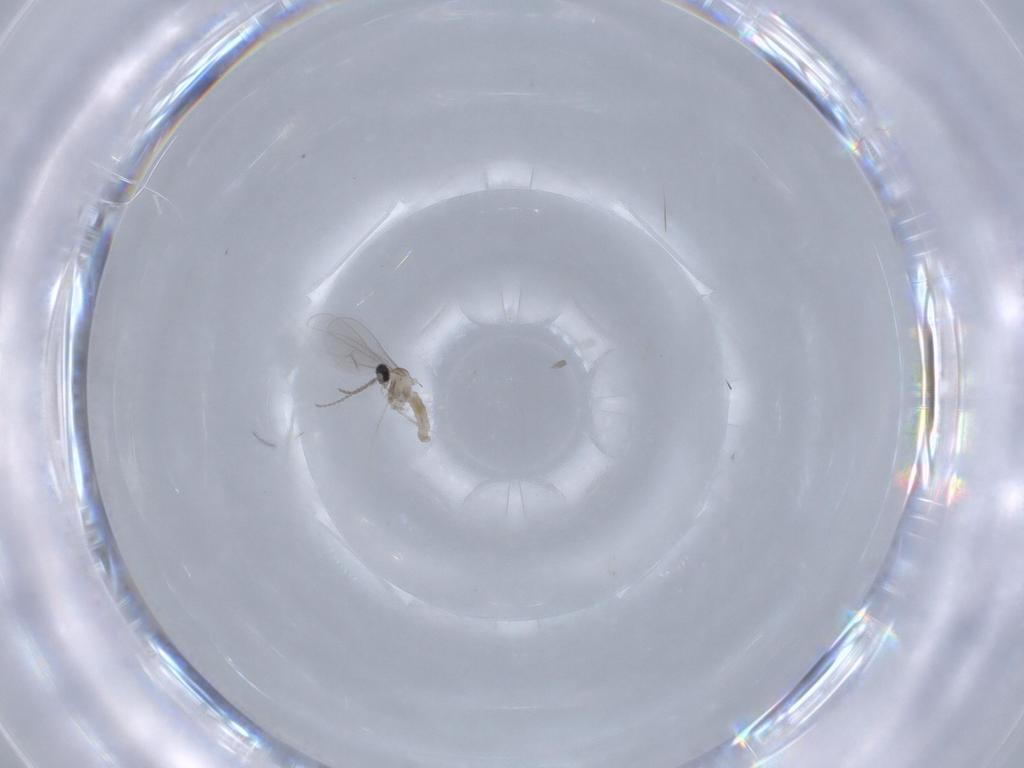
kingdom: Animalia
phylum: Arthropoda
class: Insecta
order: Diptera
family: Cecidomyiidae
